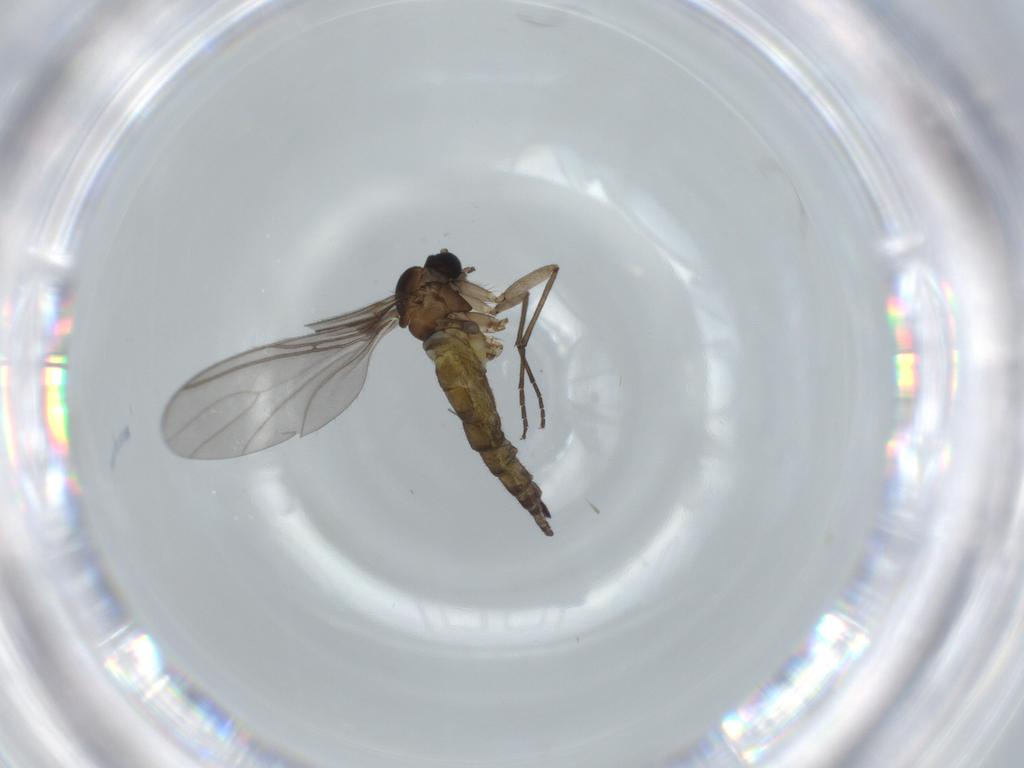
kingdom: Animalia
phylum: Arthropoda
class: Insecta
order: Diptera
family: Sciaridae
